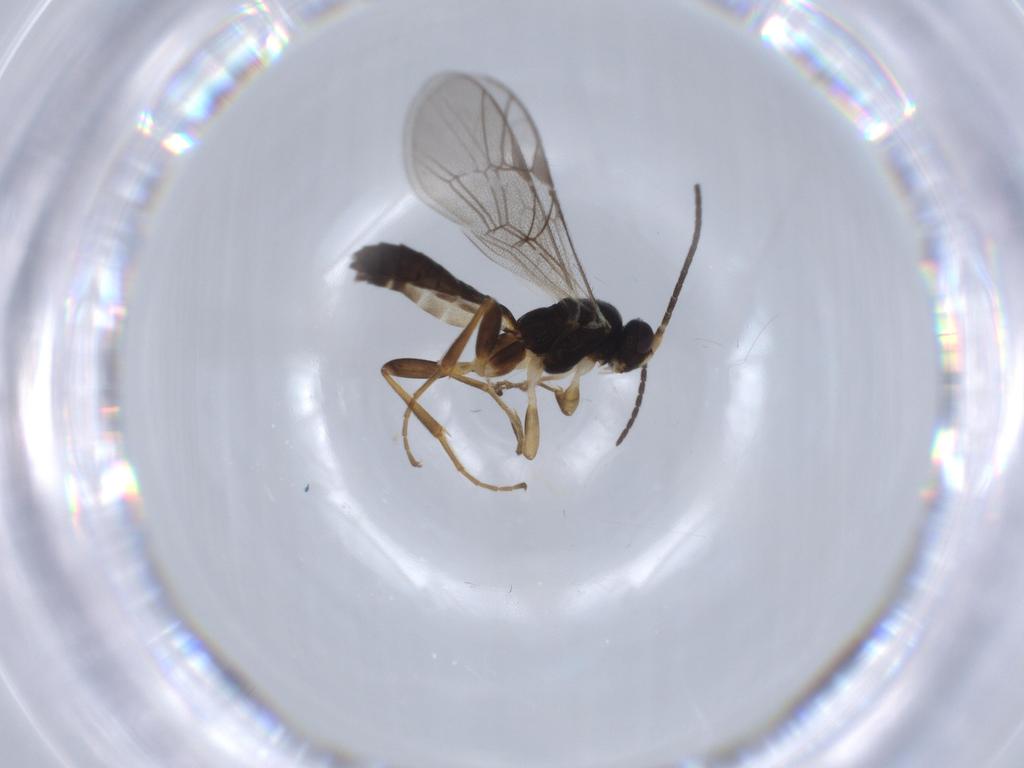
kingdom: Animalia
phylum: Arthropoda
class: Insecta
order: Hymenoptera
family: Ichneumonidae
